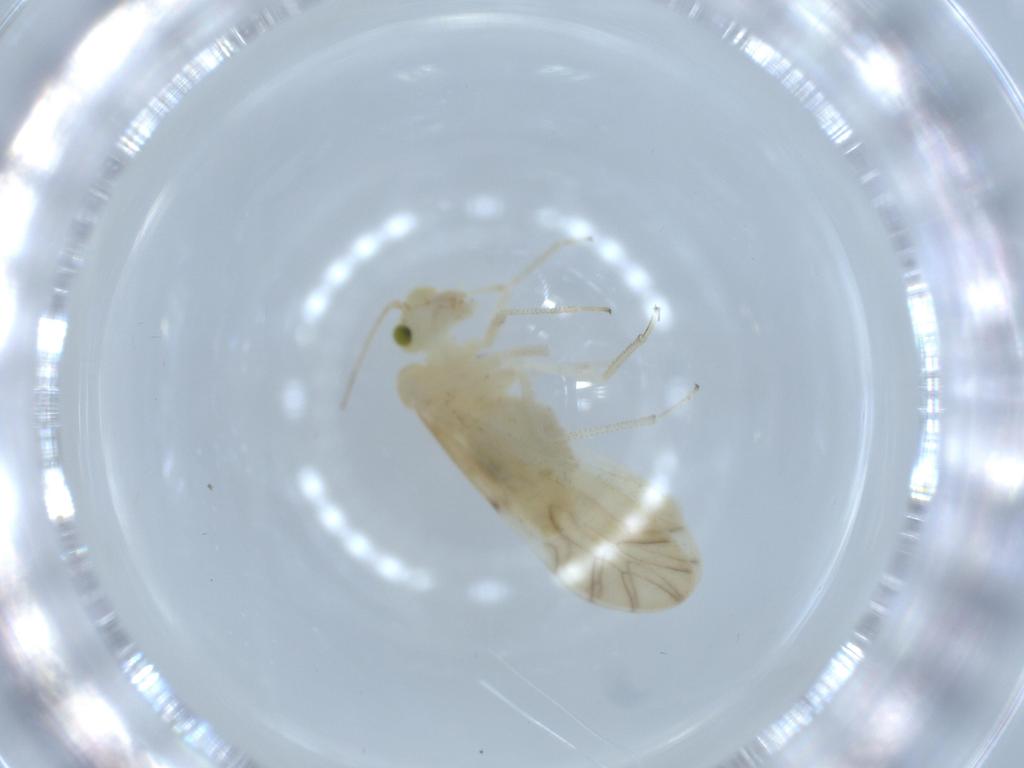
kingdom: Animalia
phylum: Arthropoda
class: Insecta
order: Psocodea
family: Caeciliusidae
